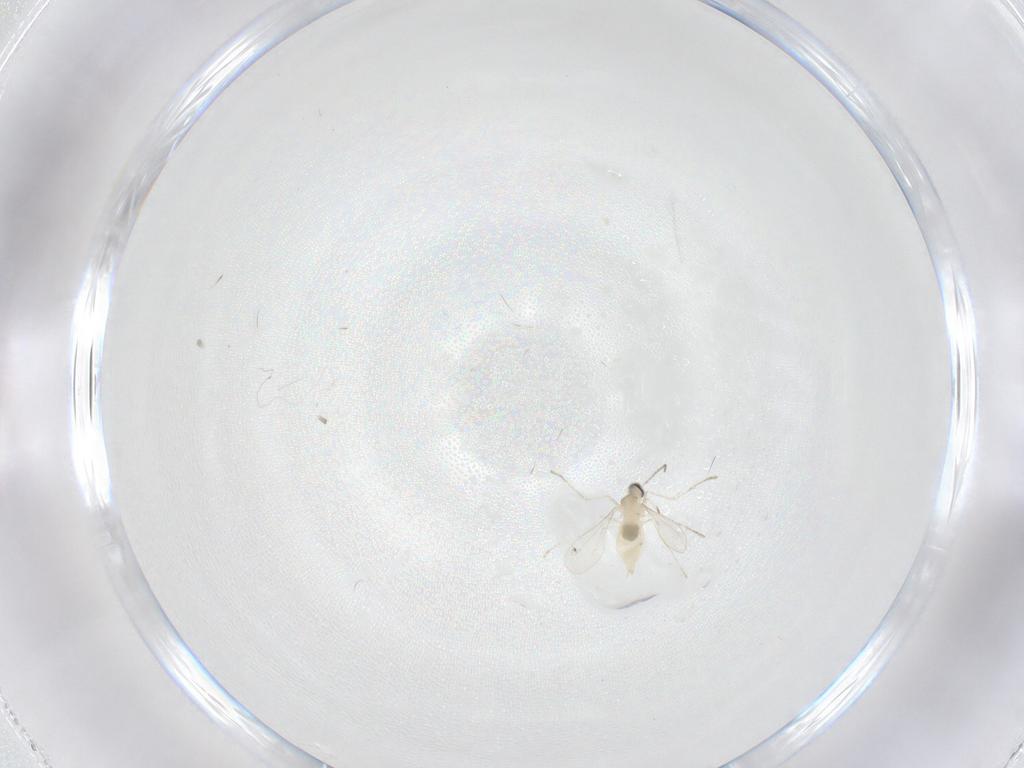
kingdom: Animalia
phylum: Arthropoda
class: Insecta
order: Diptera
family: Cecidomyiidae
